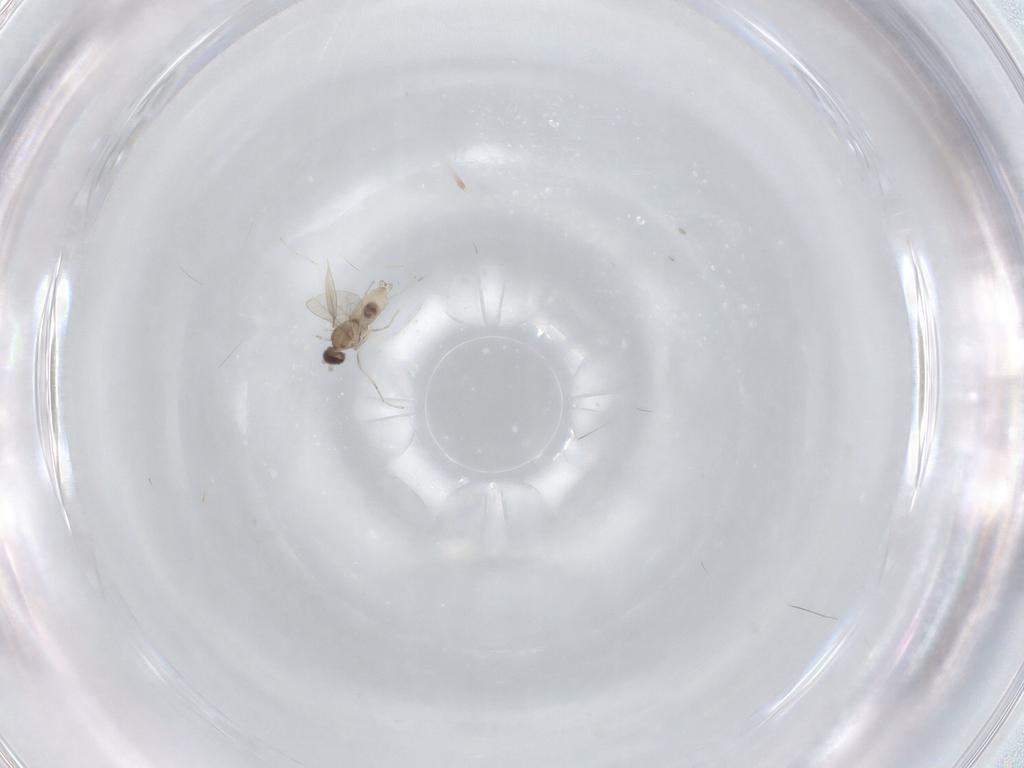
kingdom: Animalia
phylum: Arthropoda
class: Insecta
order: Diptera
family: Cecidomyiidae
